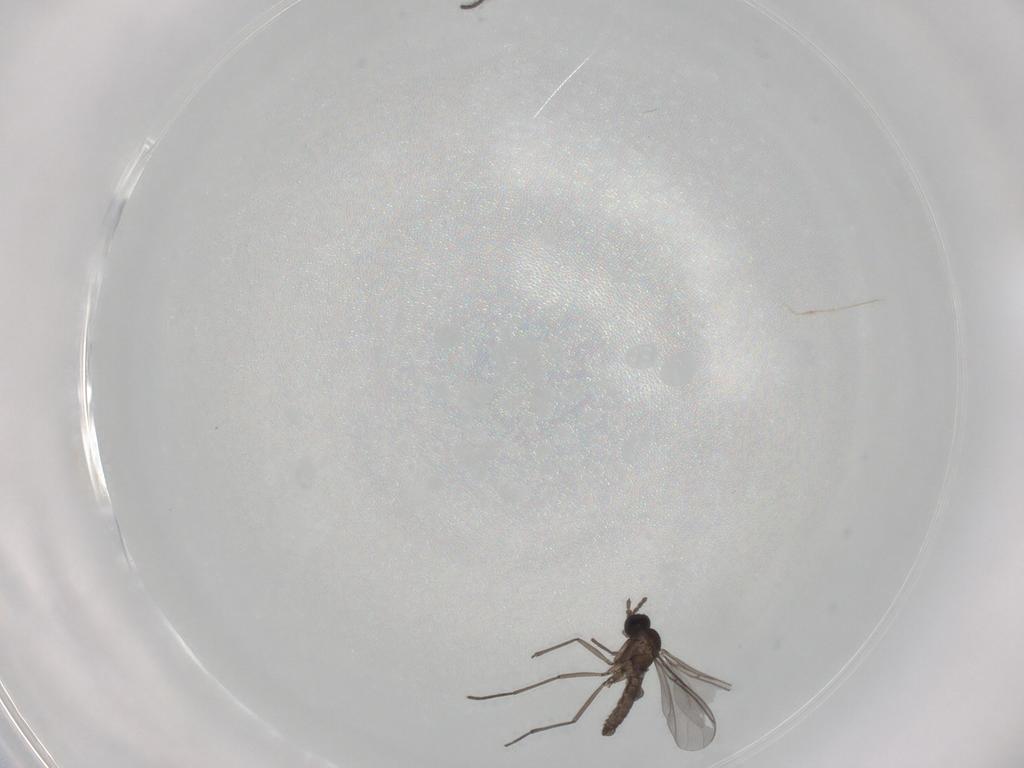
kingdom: Animalia
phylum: Arthropoda
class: Insecta
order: Diptera
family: Sciaridae
